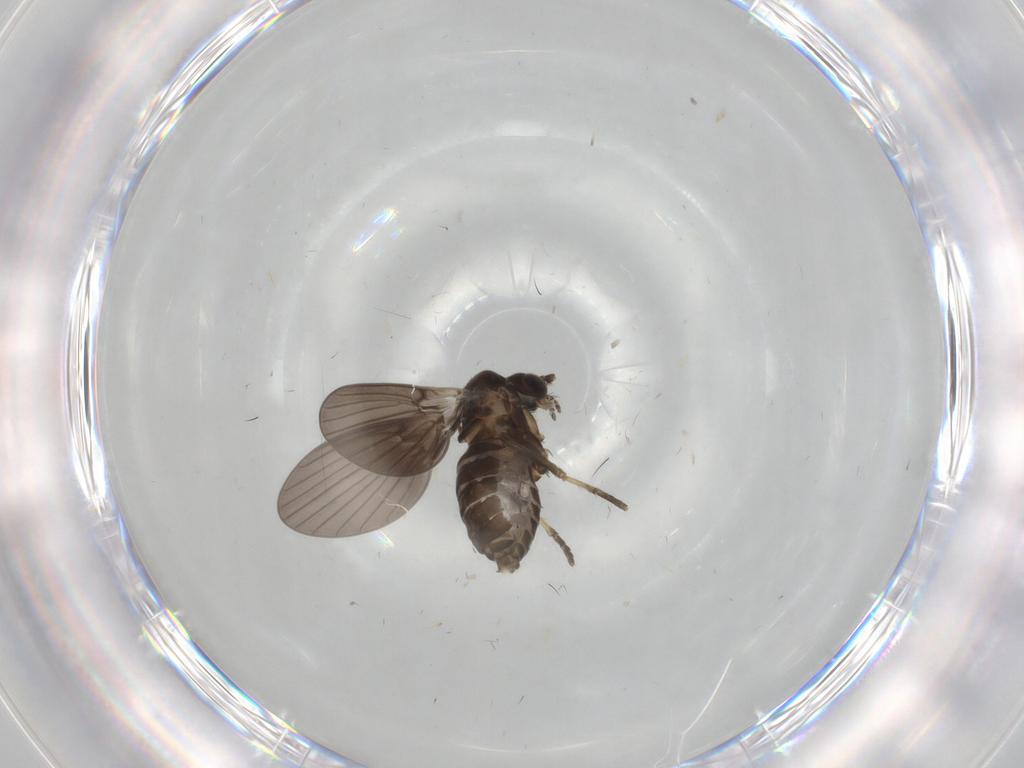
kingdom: Animalia
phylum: Arthropoda
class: Insecta
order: Diptera
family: Psychodidae
